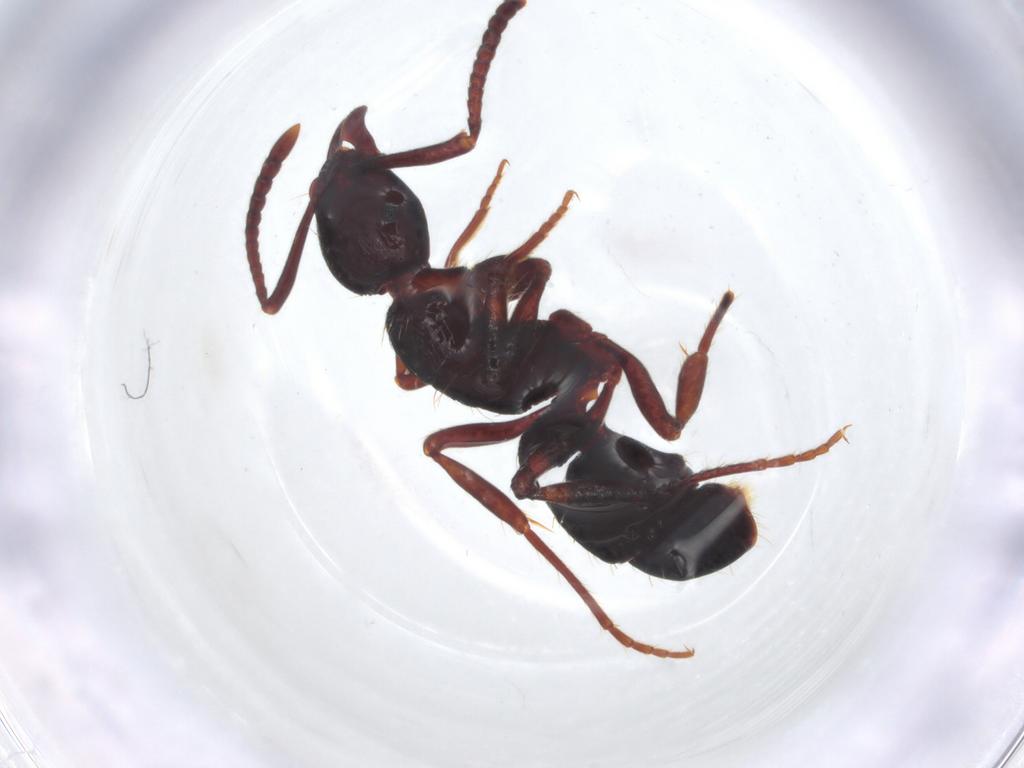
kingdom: Animalia
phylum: Arthropoda
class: Insecta
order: Hymenoptera
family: Formicidae
